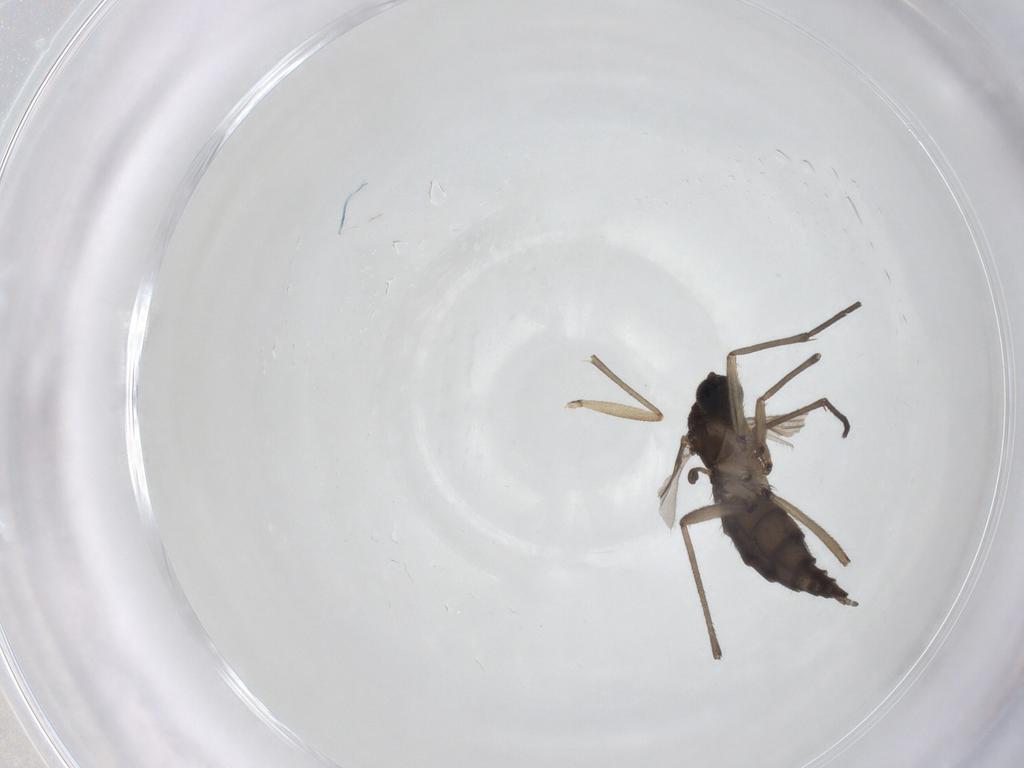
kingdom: Animalia
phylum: Arthropoda
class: Insecta
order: Diptera
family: Sciaridae
